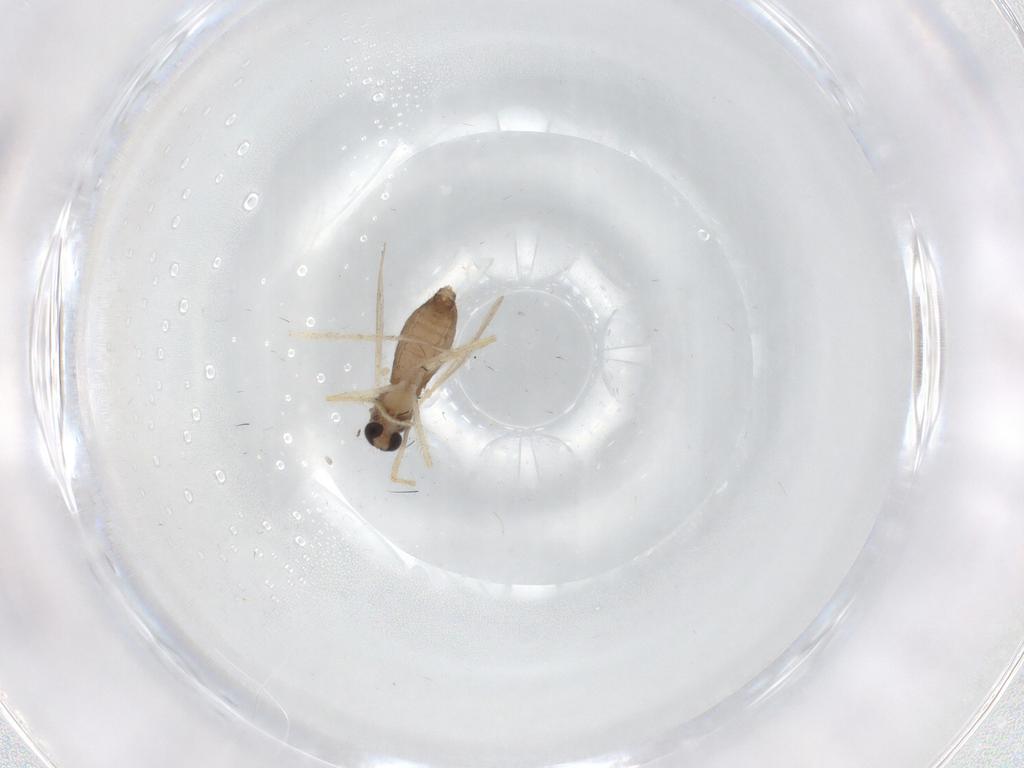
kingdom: Animalia
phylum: Arthropoda
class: Insecta
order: Diptera
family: Chironomidae
